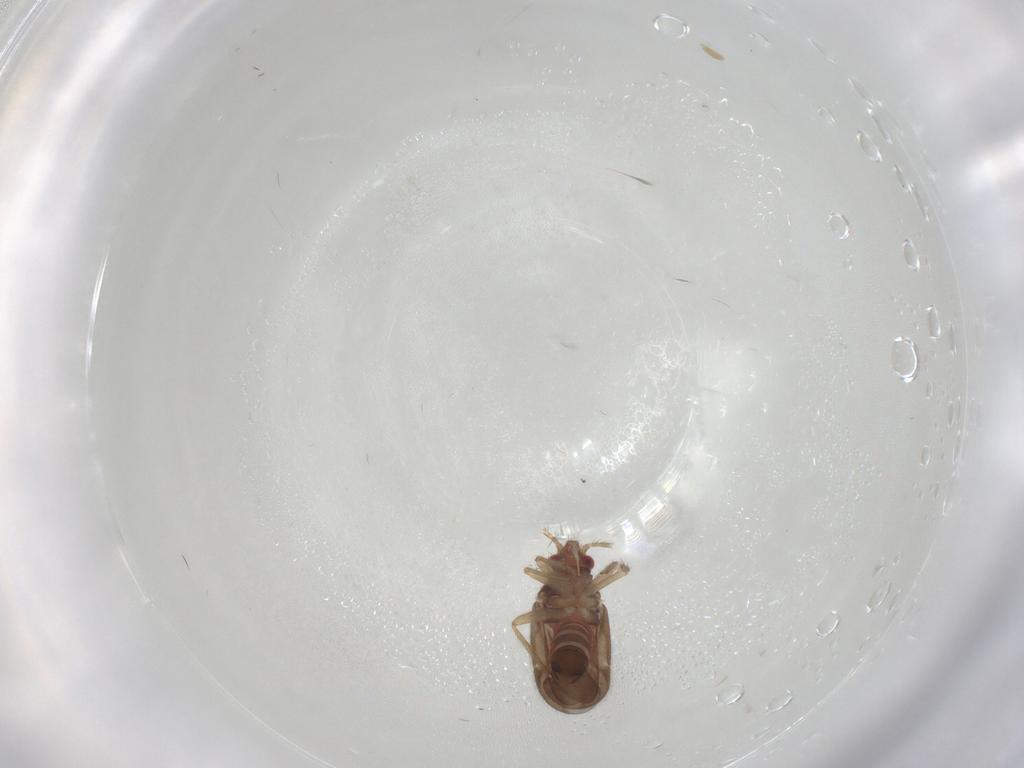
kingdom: Animalia
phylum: Arthropoda
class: Insecta
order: Hemiptera
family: Ceratocombidae
